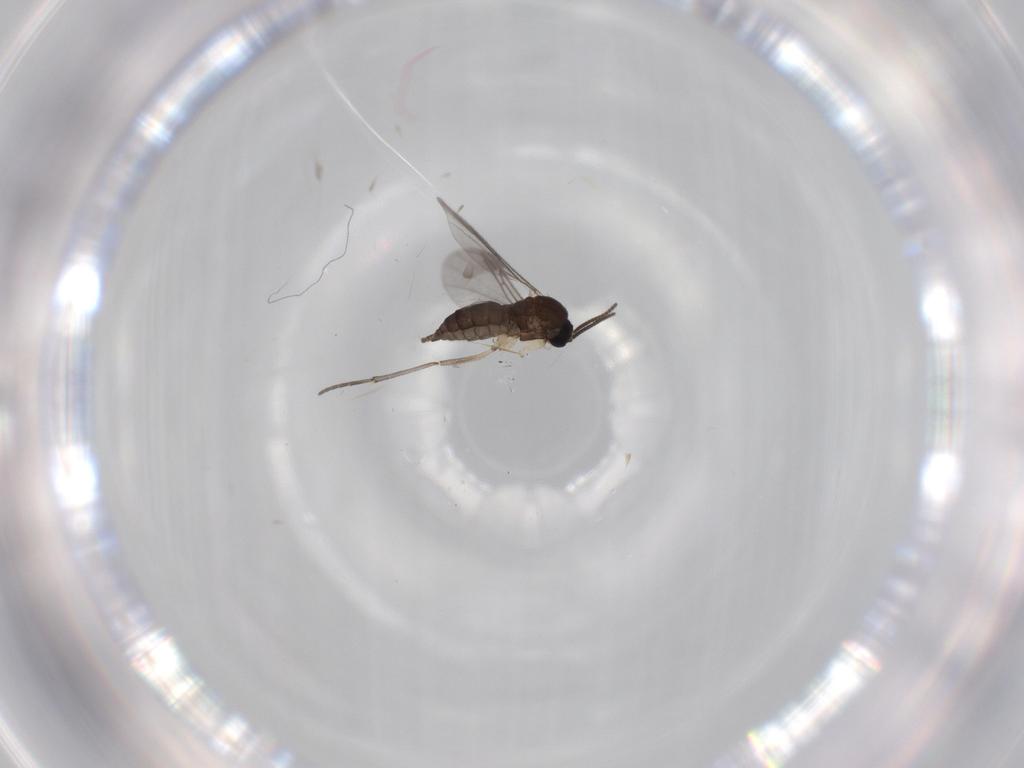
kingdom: Animalia
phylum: Arthropoda
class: Insecta
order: Diptera
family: Sciaridae
